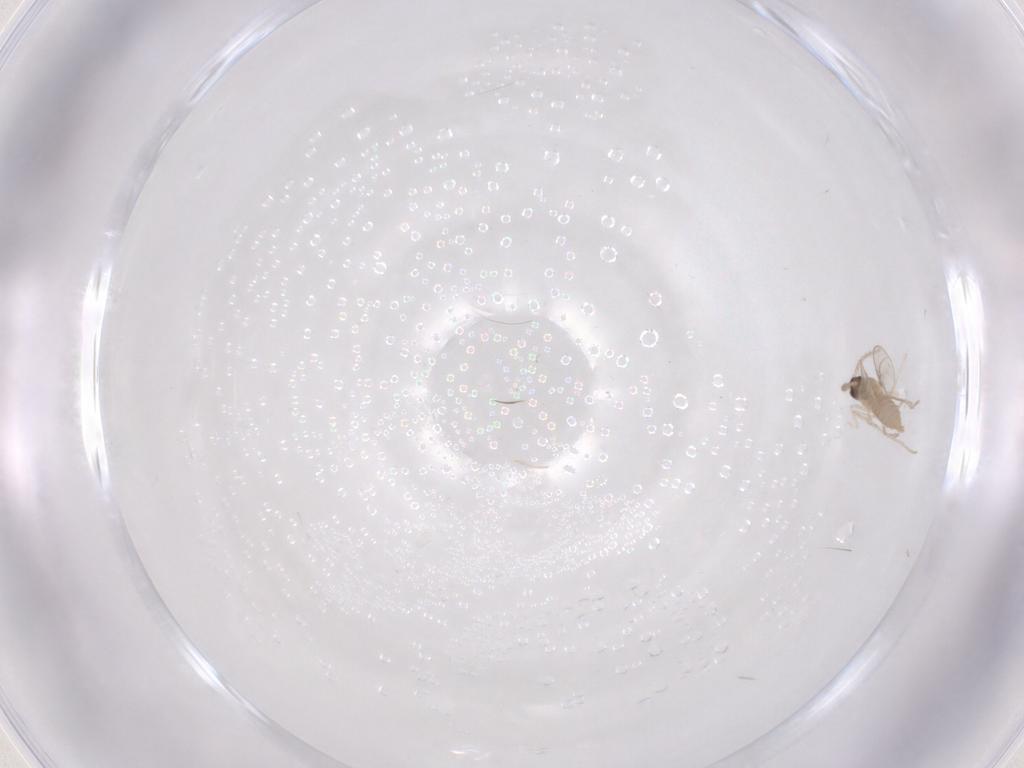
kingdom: Animalia
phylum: Arthropoda
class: Insecta
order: Diptera
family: Cecidomyiidae
